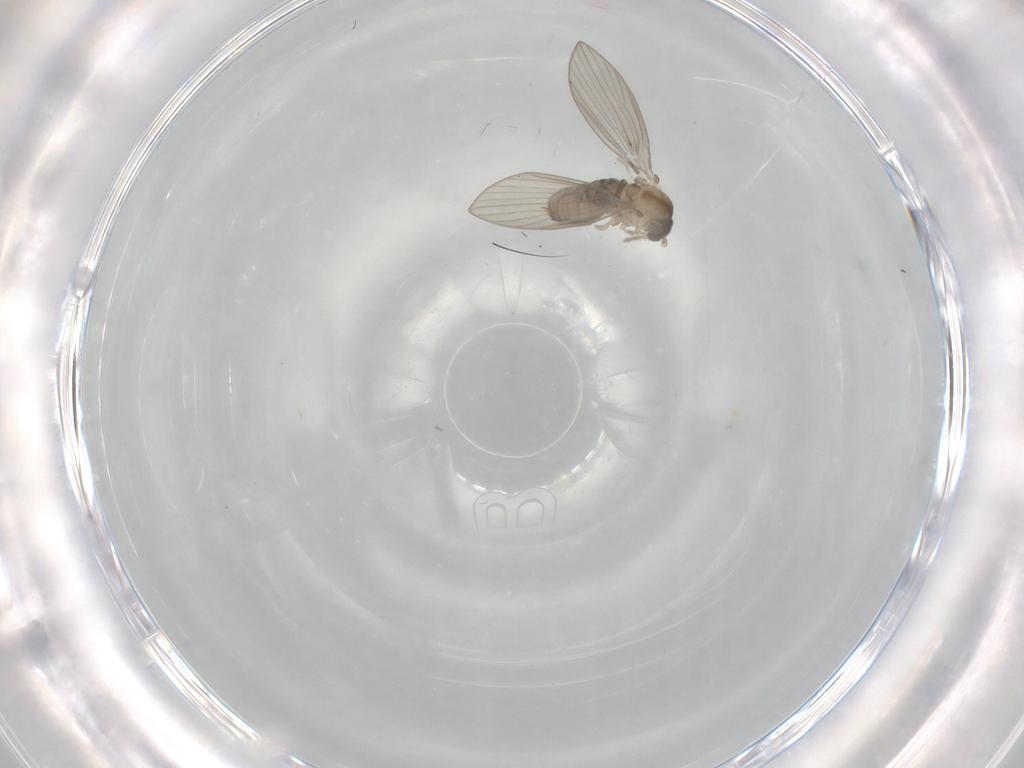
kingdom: Animalia
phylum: Arthropoda
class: Insecta
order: Diptera
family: Psychodidae
